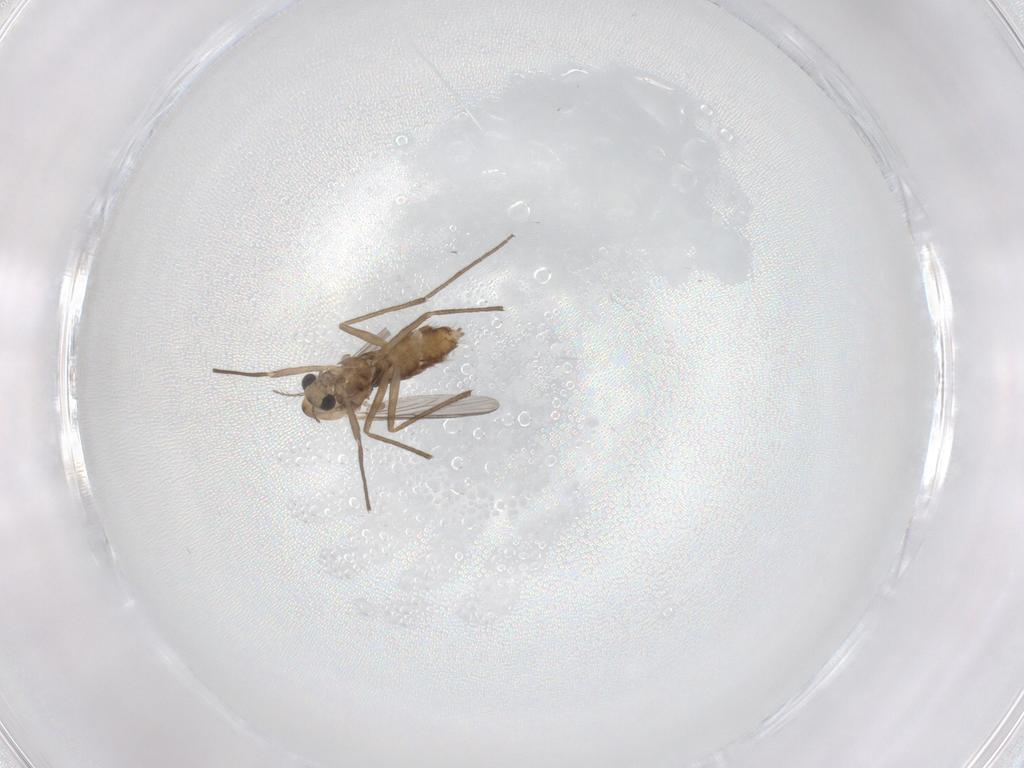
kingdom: Animalia
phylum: Arthropoda
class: Insecta
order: Diptera
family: Chironomidae
